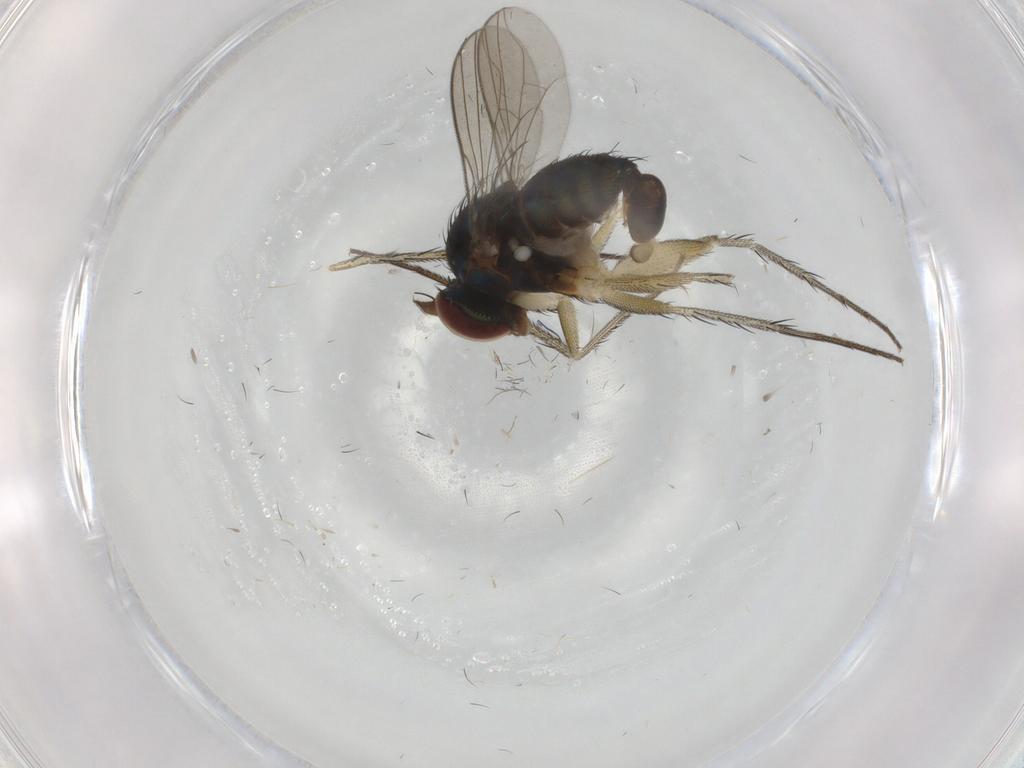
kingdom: Animalia
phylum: Arthropoda
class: Insecta
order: Diptera
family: Dolichopodidae
